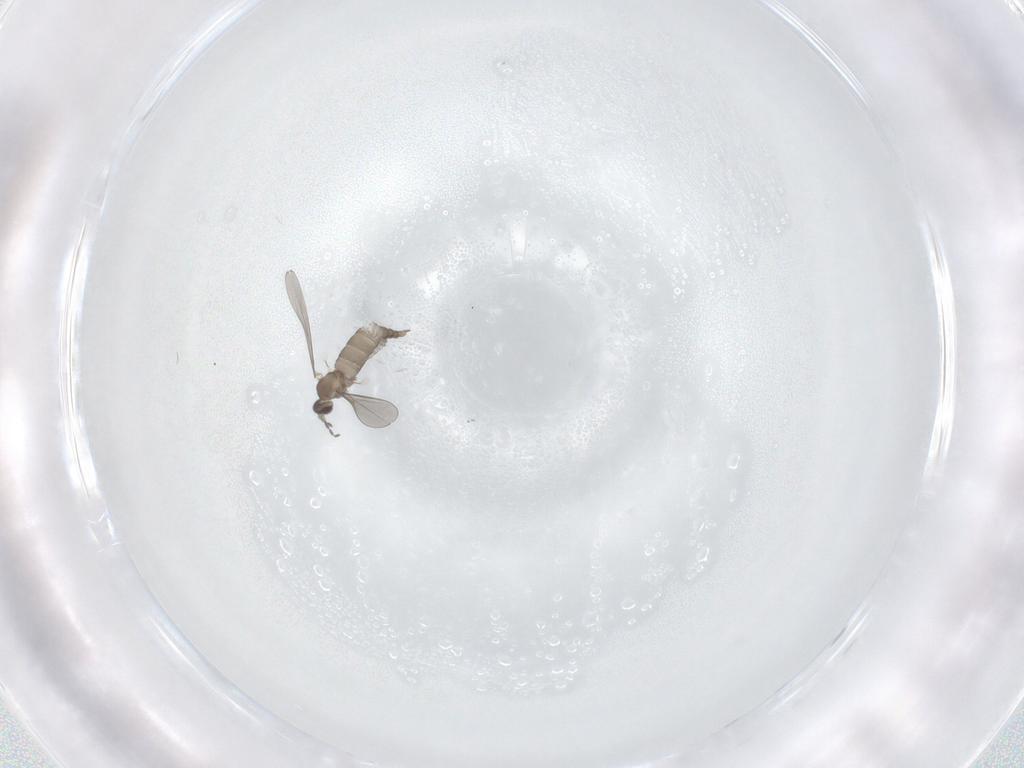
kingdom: Animalia
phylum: Arthropoda
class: Insecta
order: Diptera
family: Cecidomyiidae
